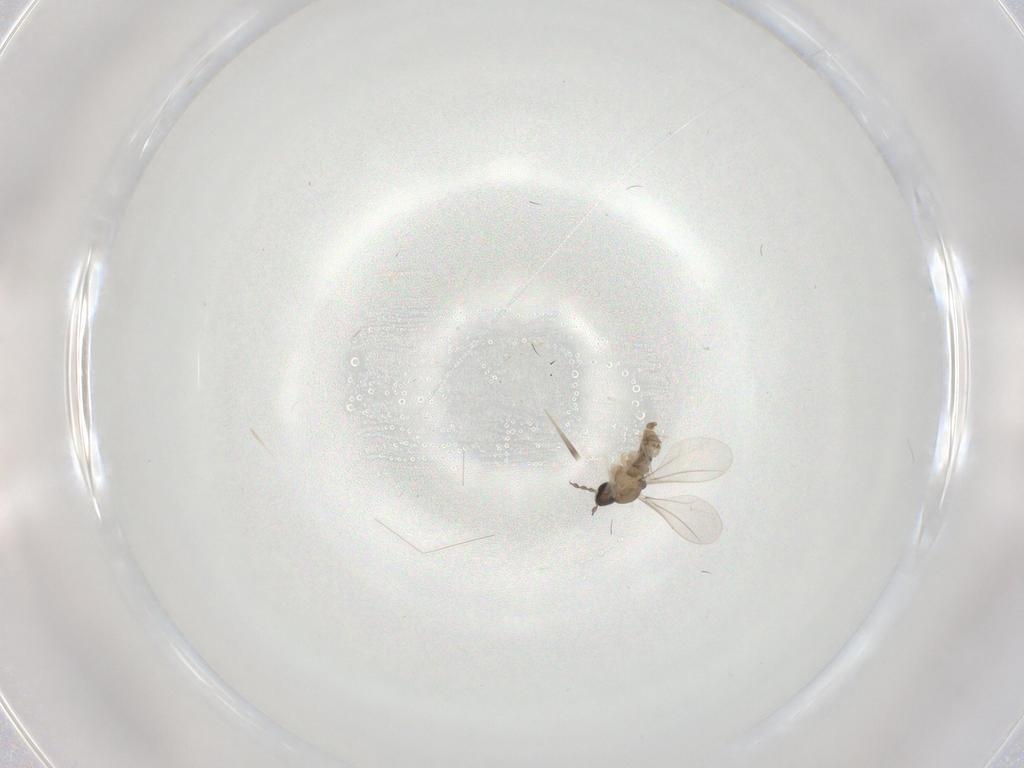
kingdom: Animalia
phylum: Arthropoda
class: Insecta
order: Diptera
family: Cecidomyiidae
